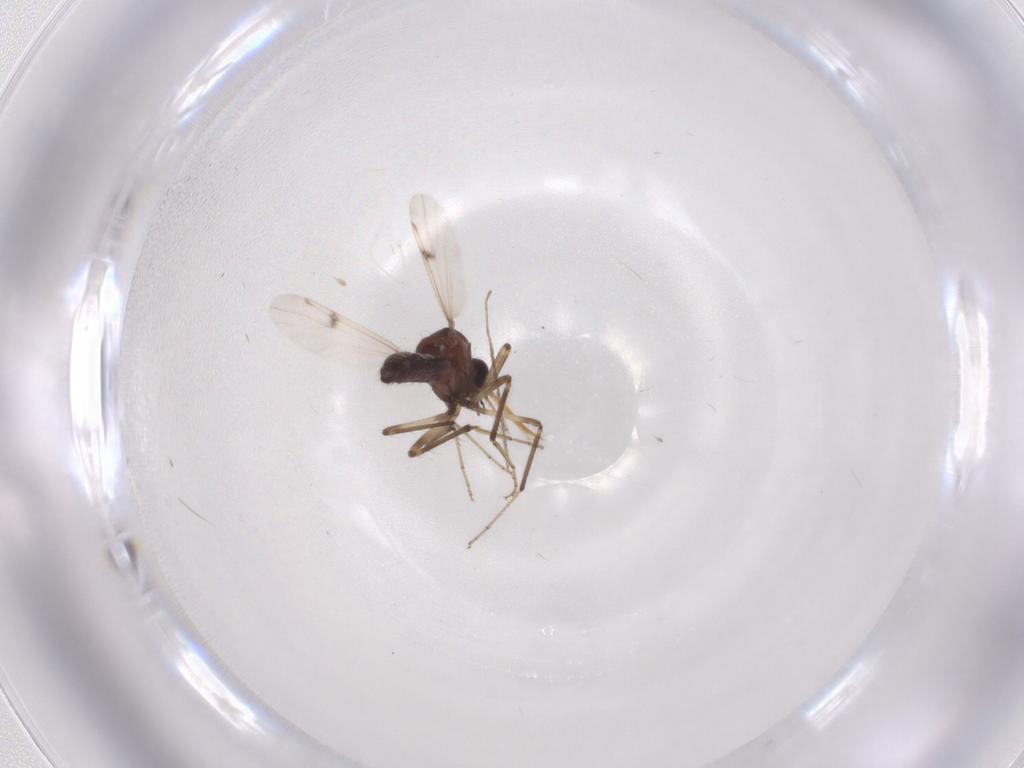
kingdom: Animalia
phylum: Arthropoda
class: Insecta
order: Diptera
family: Mycetophilidae
